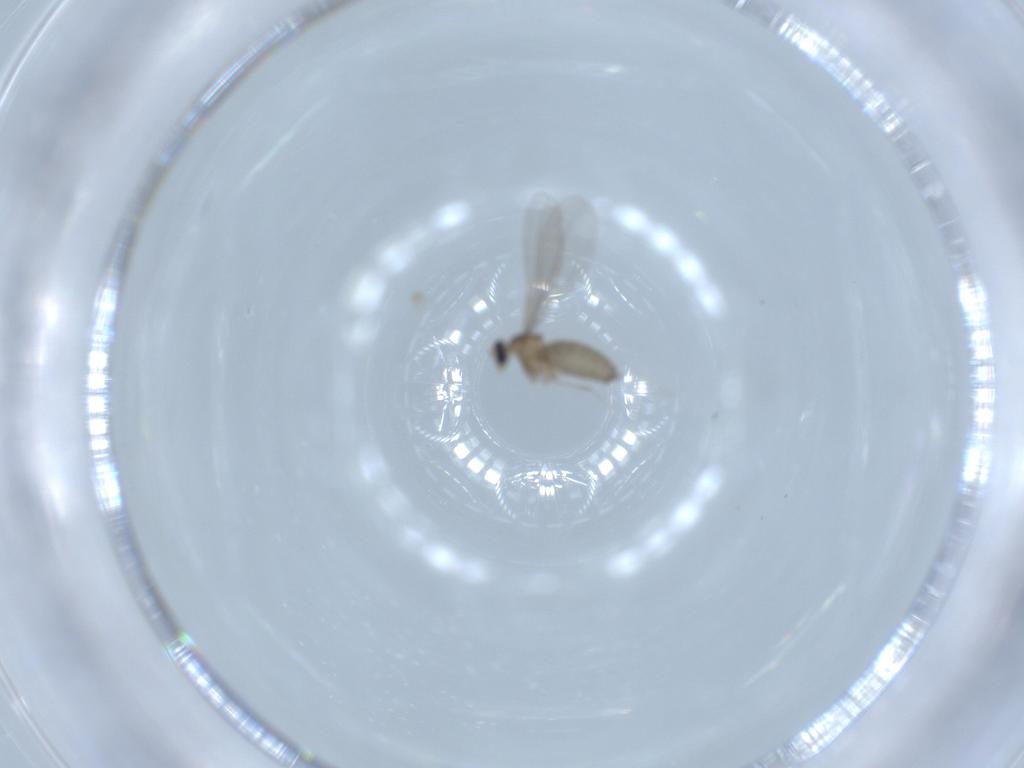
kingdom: Animalia
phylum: Arthropoda
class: Insecta
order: Diptera
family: Cecidomyiidae
